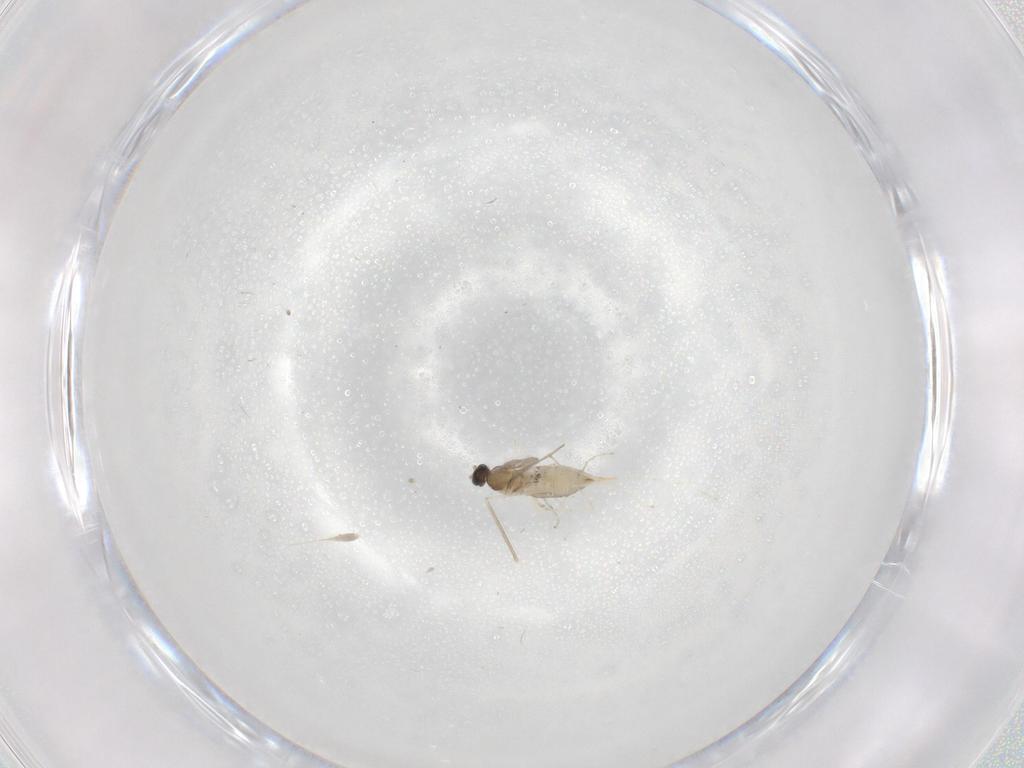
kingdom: Animalia
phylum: Arthropoda
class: Insecta
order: Diptera
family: Cecidomyiidae
